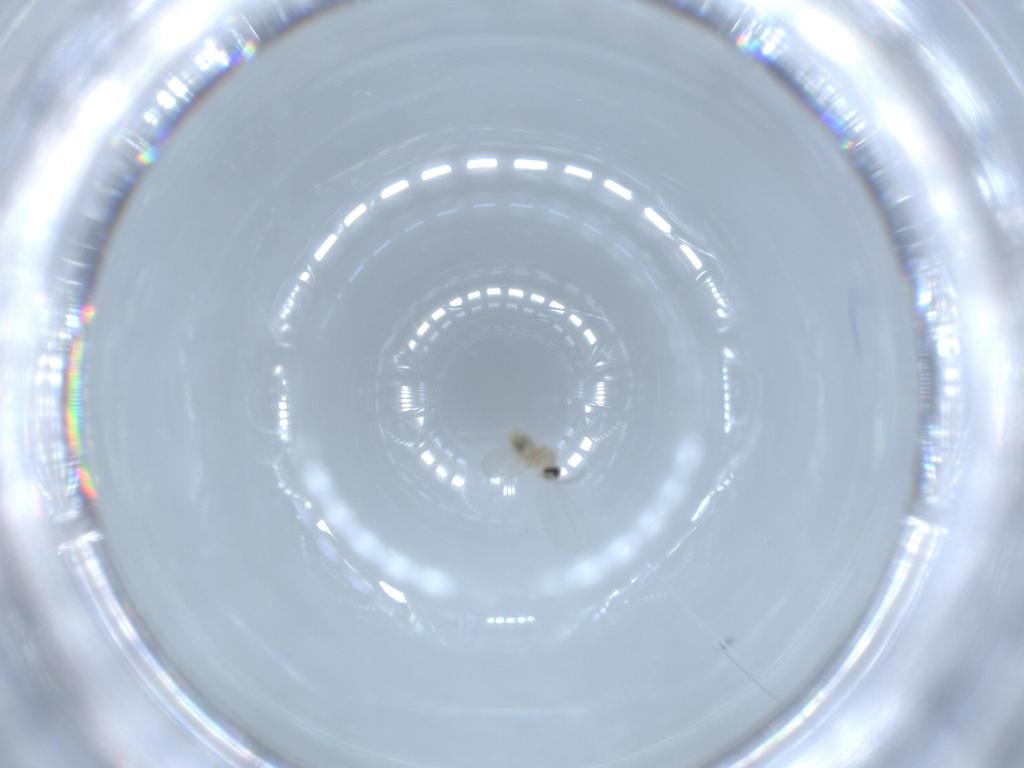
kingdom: Animalia
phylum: Arthropoda
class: Insecta
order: Diptera
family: Cecidomyiidae
